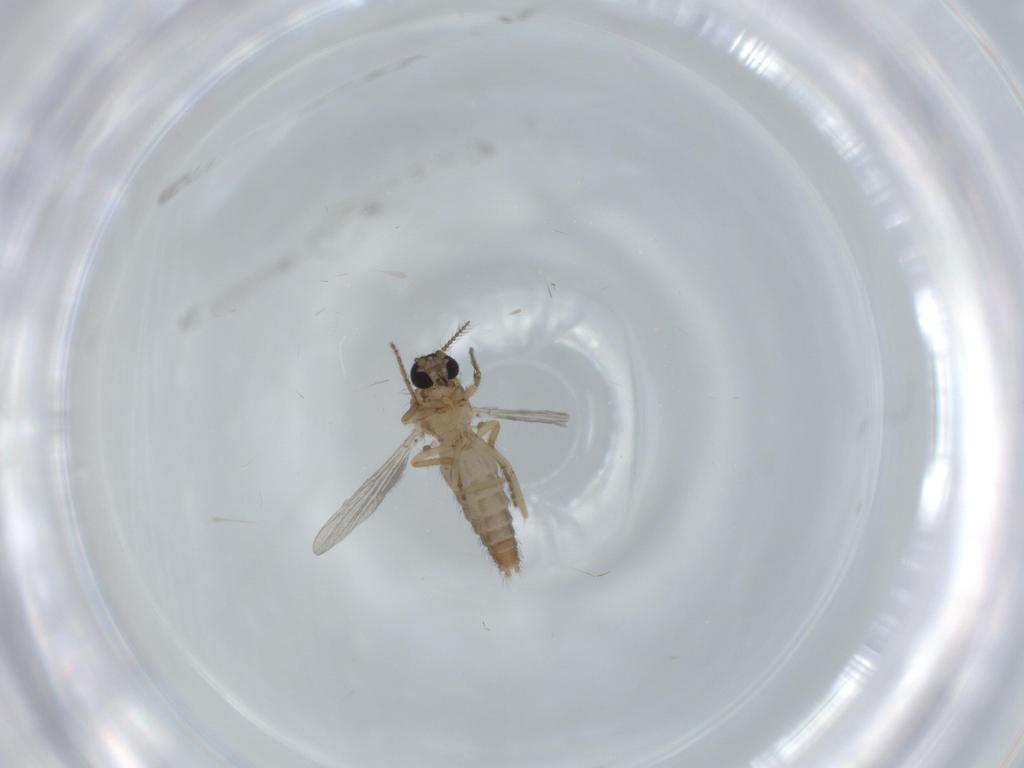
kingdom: Animalia
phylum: Arthropoda
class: Insecta
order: Diptera
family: Ceratopogonidae
